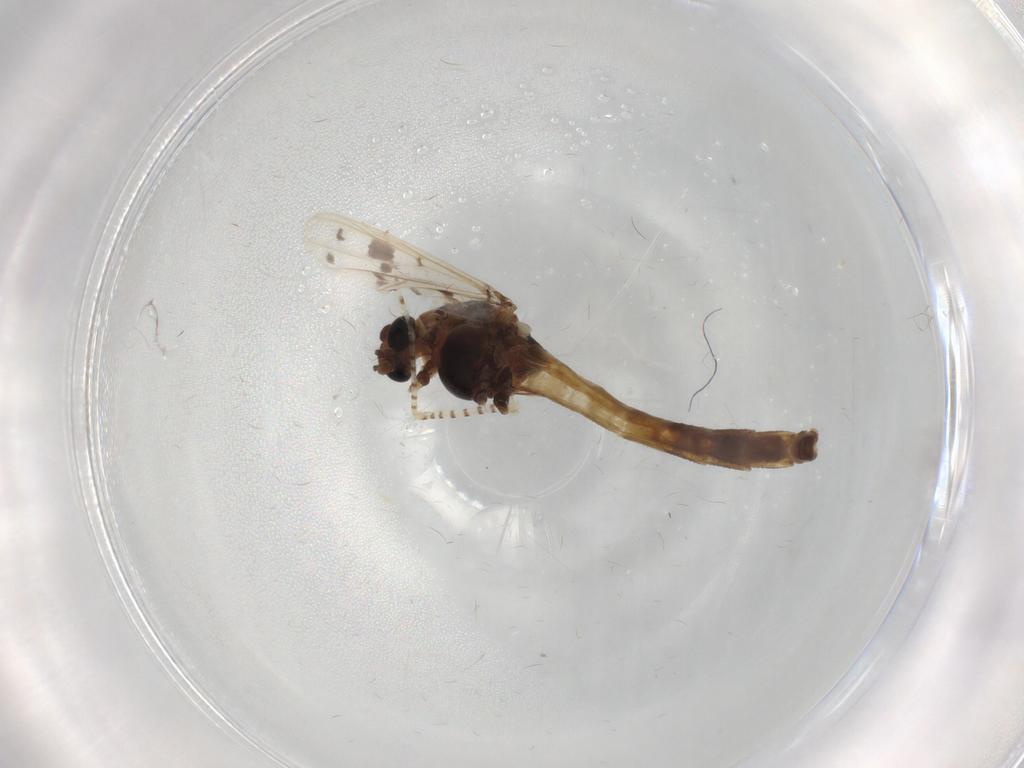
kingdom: Animalia
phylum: Arthropoda
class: Insecta
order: Diptera
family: Chironomidae
